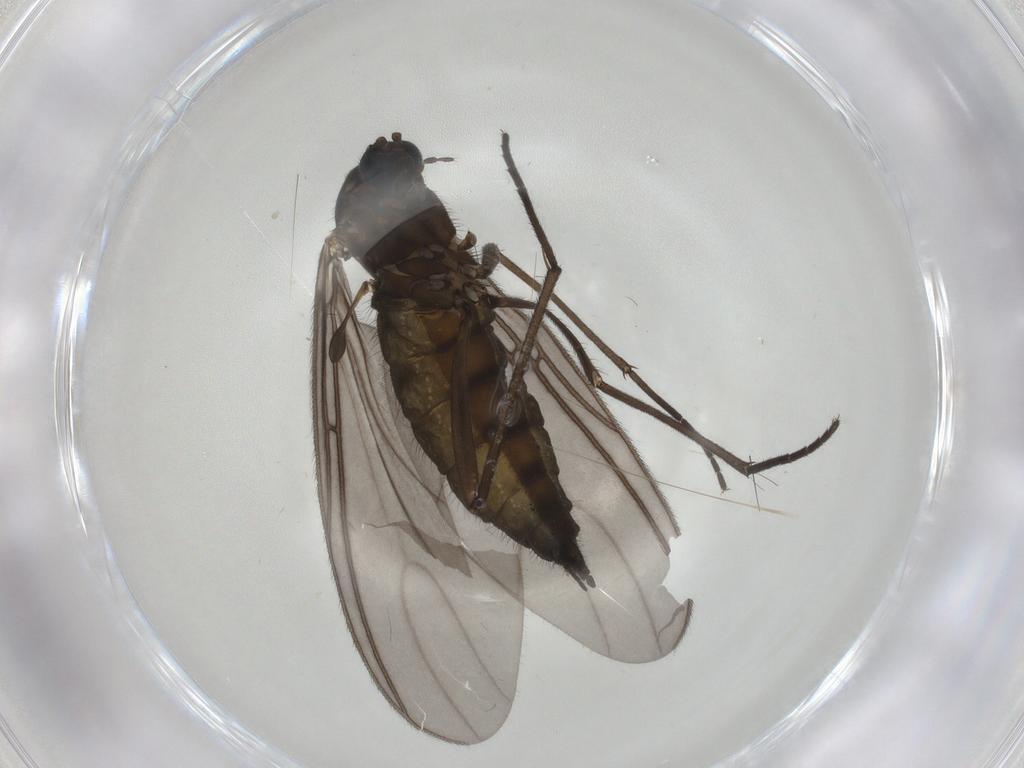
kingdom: Animalia
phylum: Arthropoda
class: Insecta
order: Diptera
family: Sciaridae
